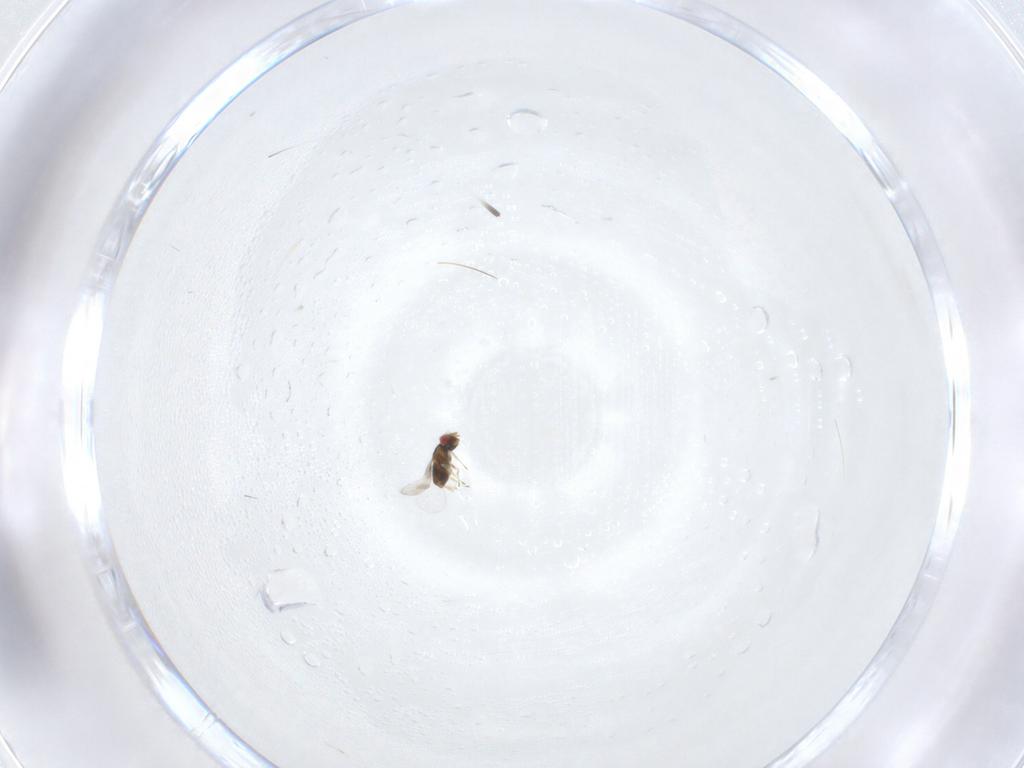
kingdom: Animalia
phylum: Arthropoda
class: Insecta
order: Hymenoptera
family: Trichogrammatidae
